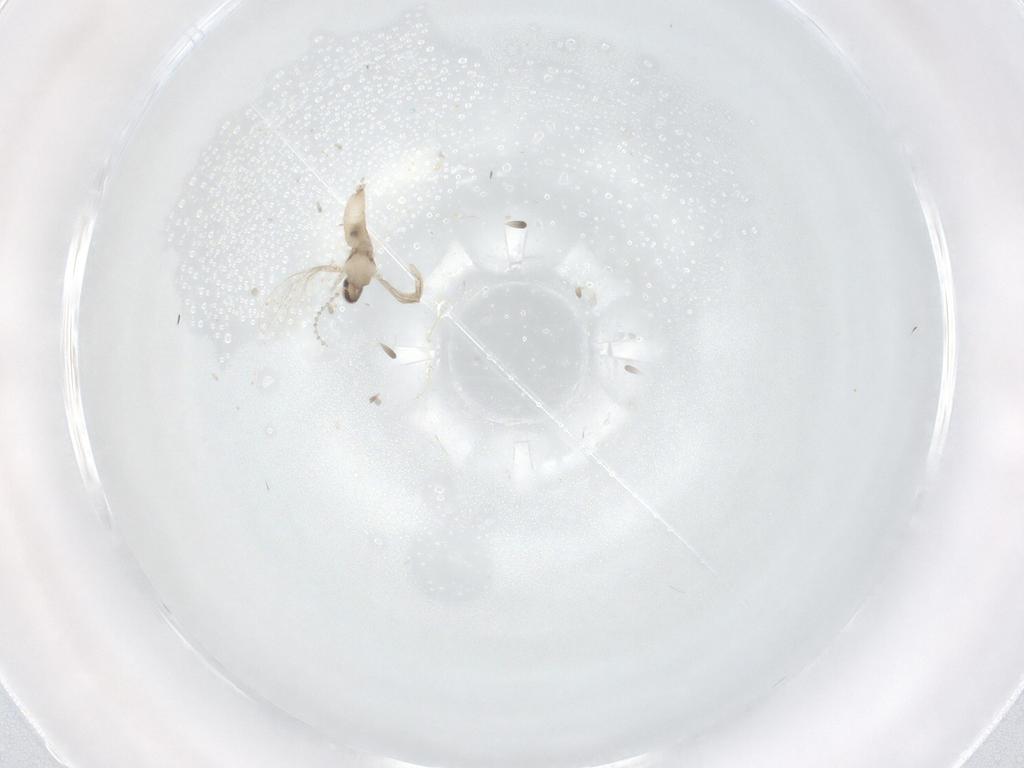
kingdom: Animalia
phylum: Arthropoda
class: Insecta
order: Diptera
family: Cecidomyiidae
